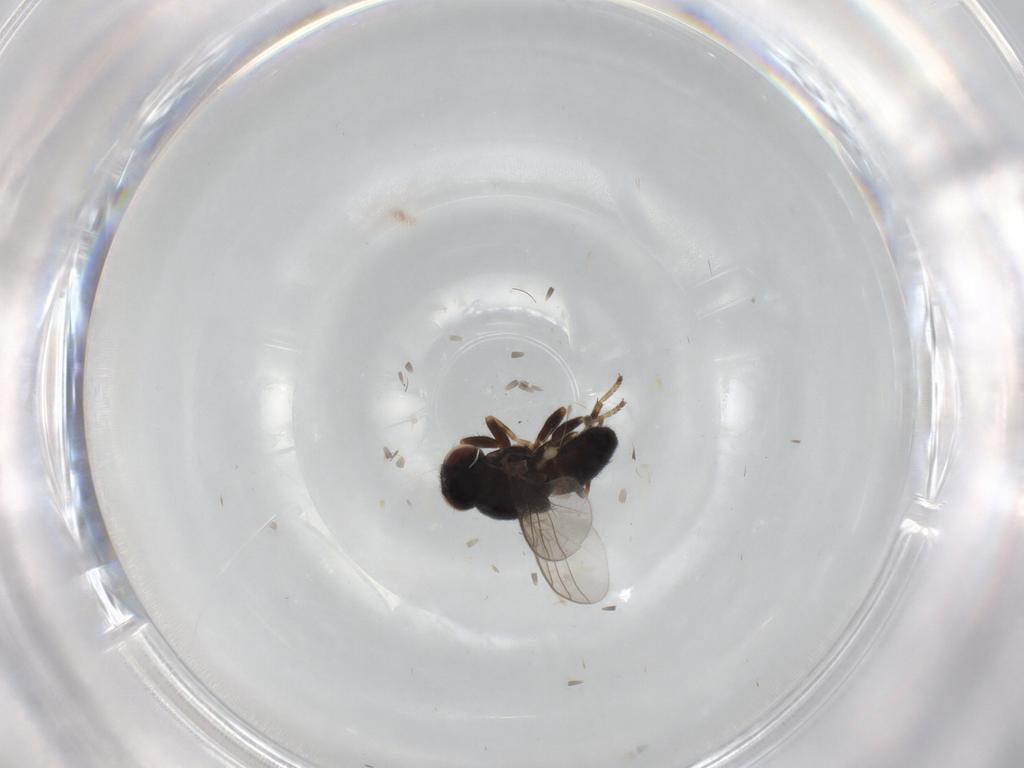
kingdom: Animalia
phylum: Arthropoda
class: Insecta
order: Diptera
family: Chloropidae
